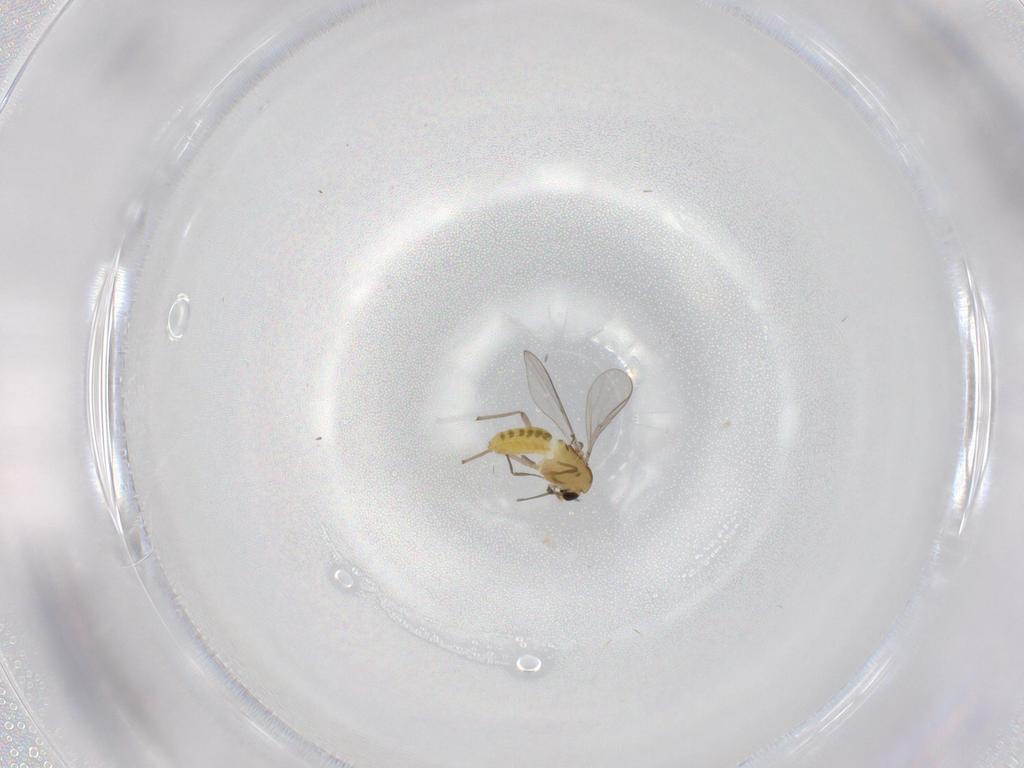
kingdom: Animalia
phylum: Arthropoda
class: Insecta
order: Diptera
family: Chironomidae
